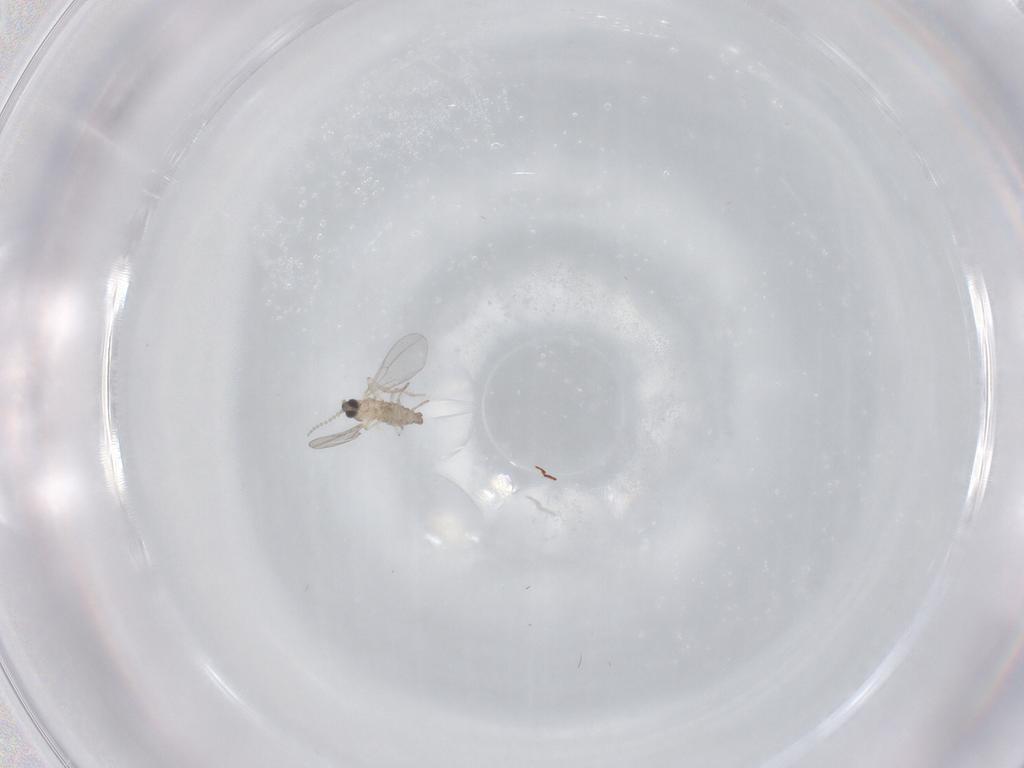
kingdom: Animalia
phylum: Arthropoda
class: Insecta
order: Diptera
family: Cecidomyiidae
